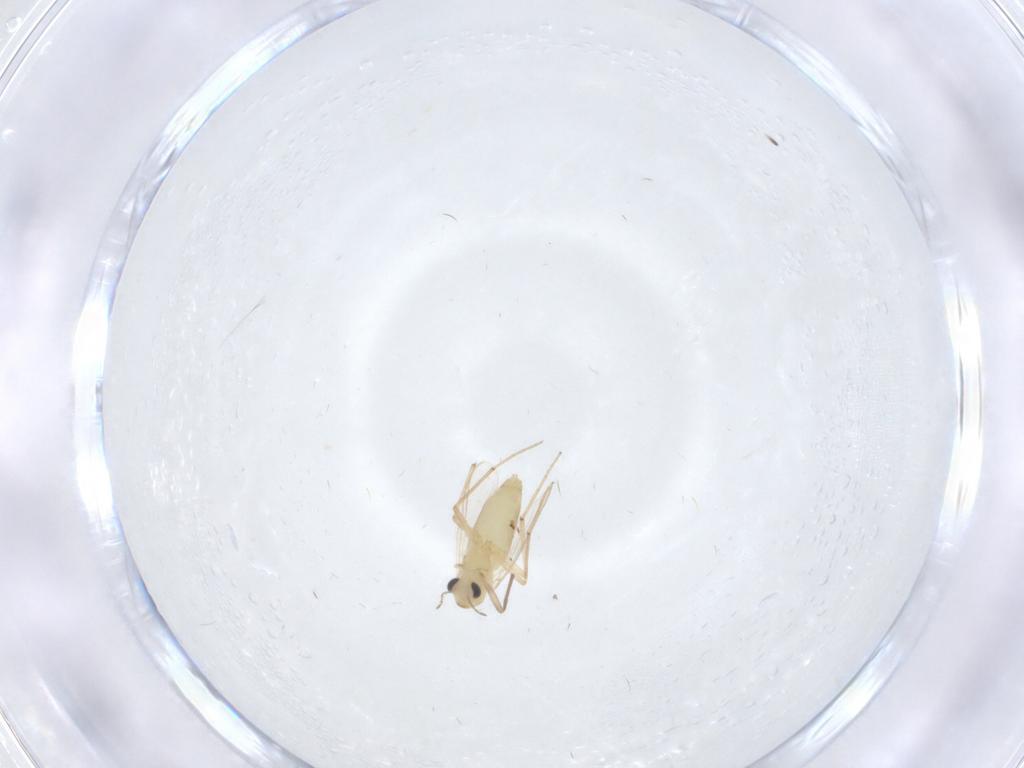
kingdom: Animalia
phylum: Arthropoda
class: Insecta
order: Diptera
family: Chironomidae
